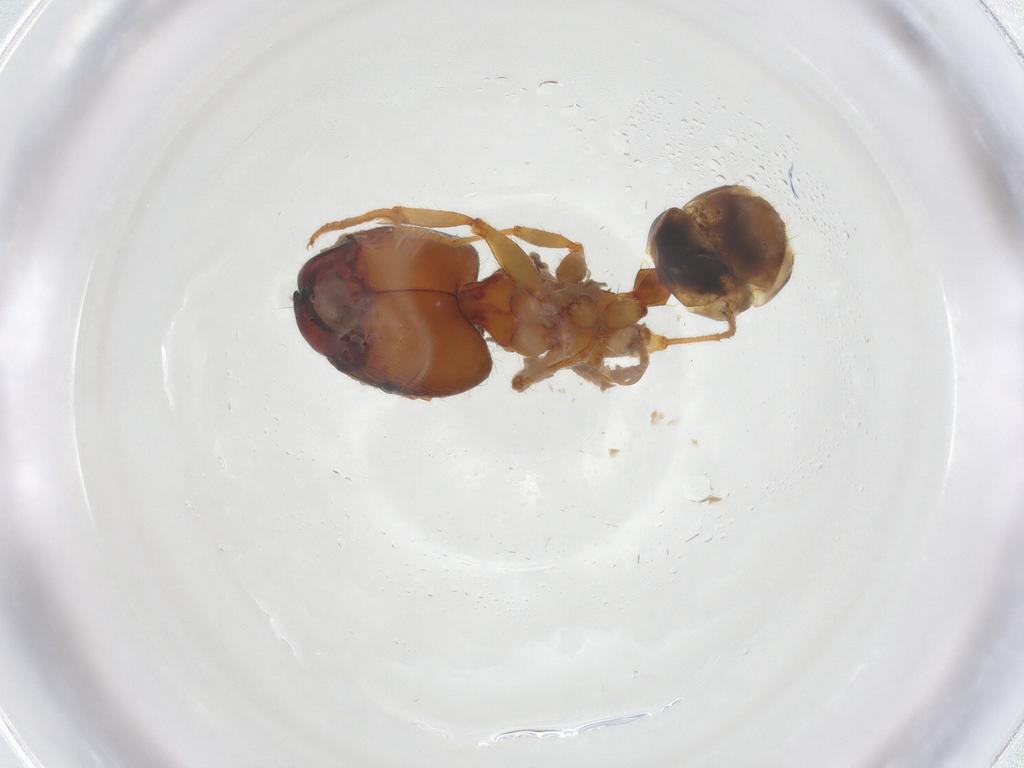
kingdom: Animalia
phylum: Arthropoda
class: Insecta
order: Hymenoptera
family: Formicidae
